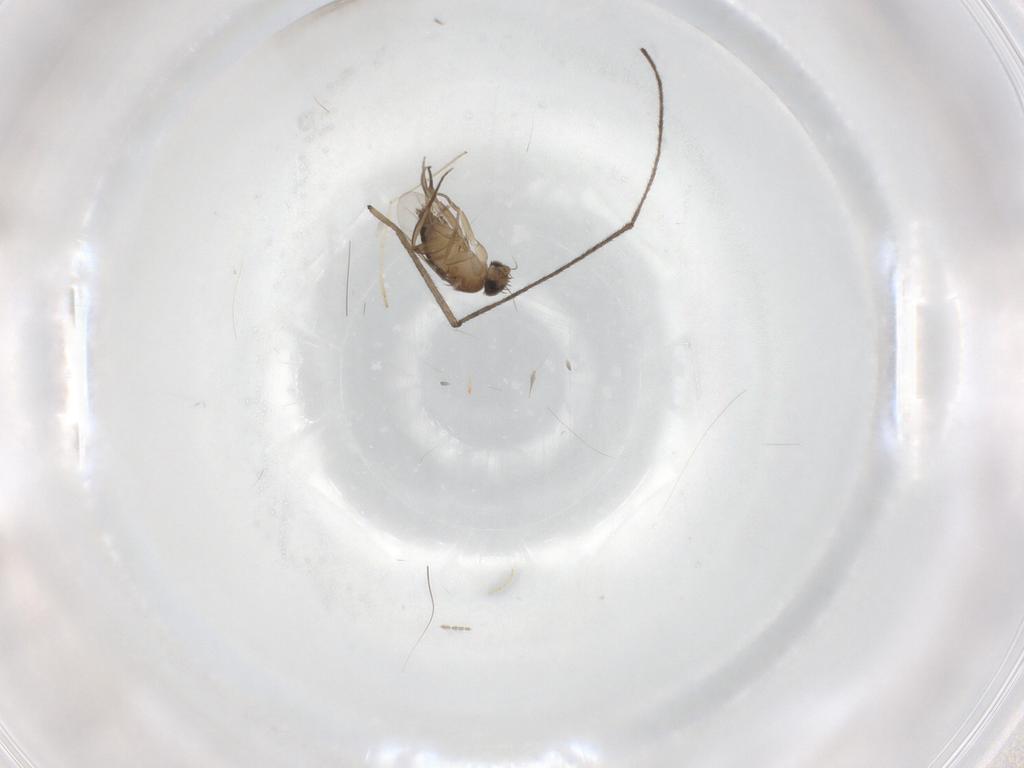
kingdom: Animalia
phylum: Arthropoda
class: Insecta
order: Diptera
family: Limoniidae
